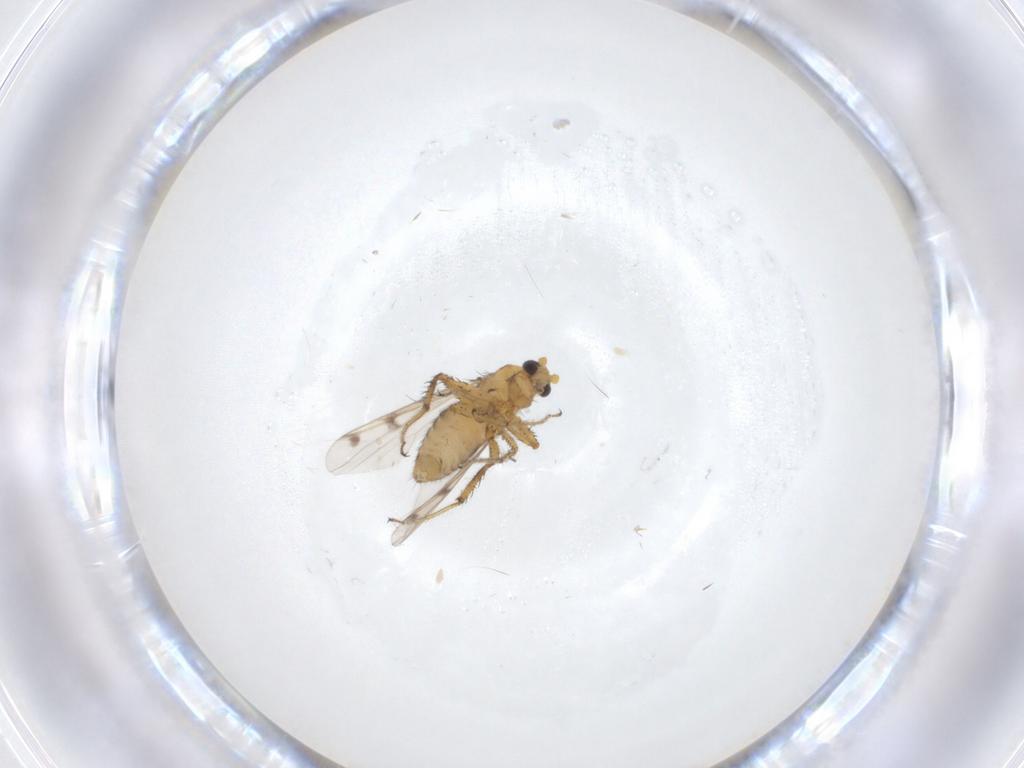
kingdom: Animalia
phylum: Arthropoda
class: Insecta
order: Diptera
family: Ceratopogonidae
